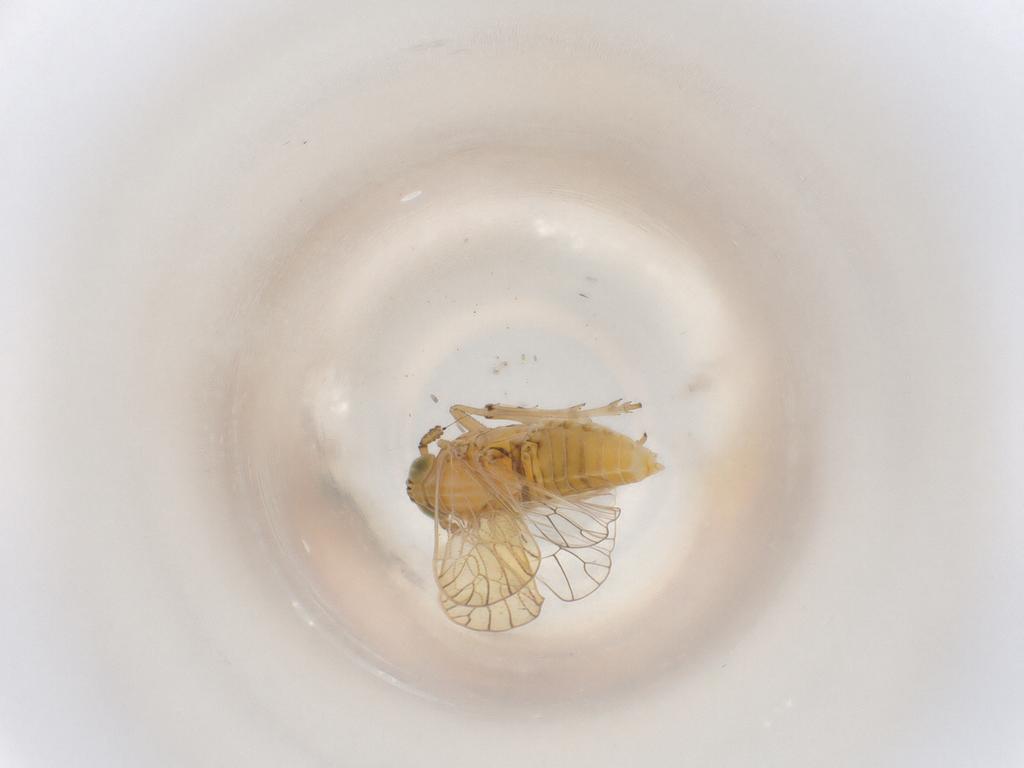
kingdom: Animalia
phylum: Arthropoda
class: Insecta
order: Hemiptera
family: Delphacidae
